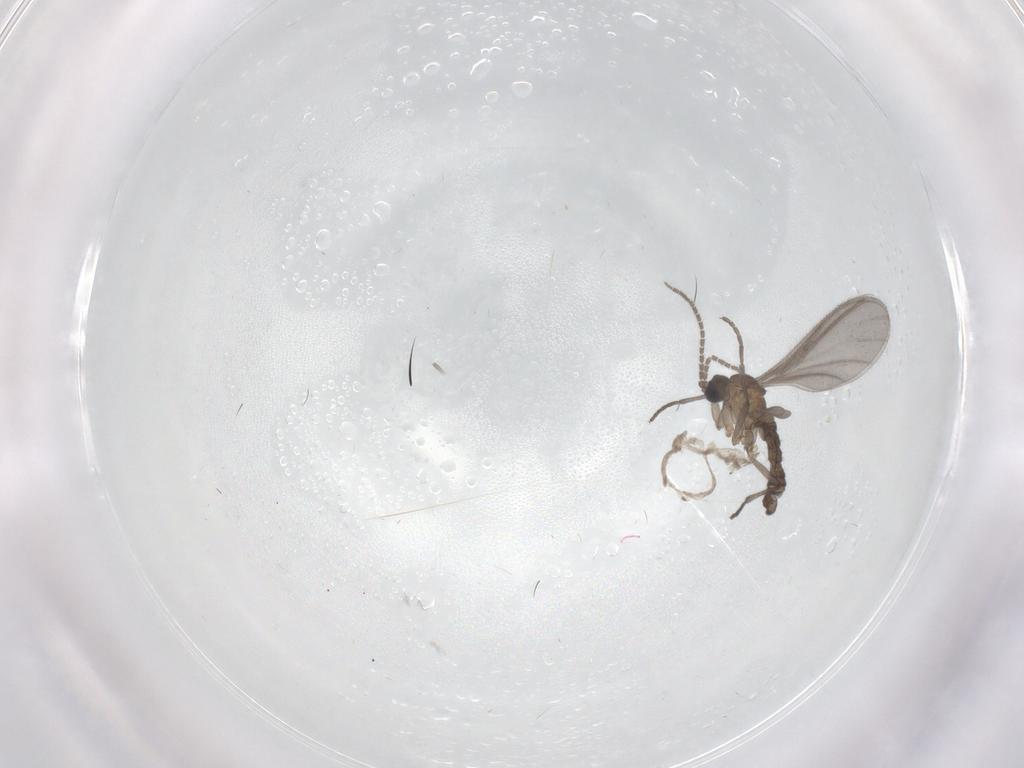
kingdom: Animalia
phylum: Arthropoda
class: Insecta
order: Diptera
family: Sciaridae
